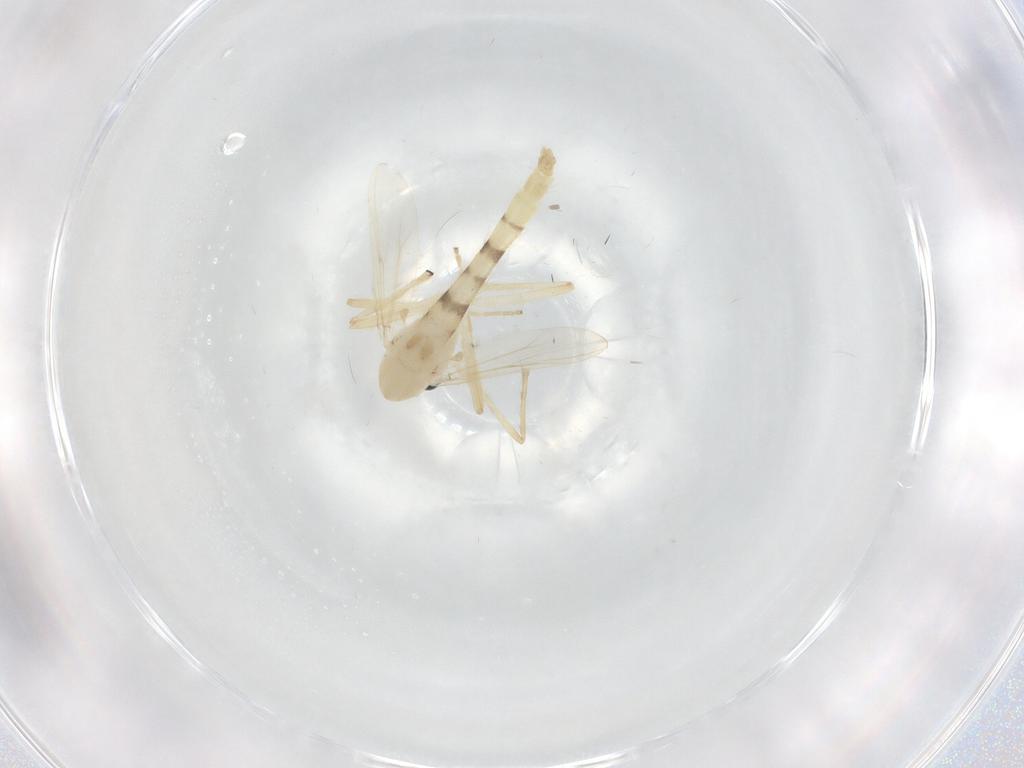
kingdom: Animalia
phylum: Arthropoda
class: Insecta
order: Diptera
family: Chironomidae
